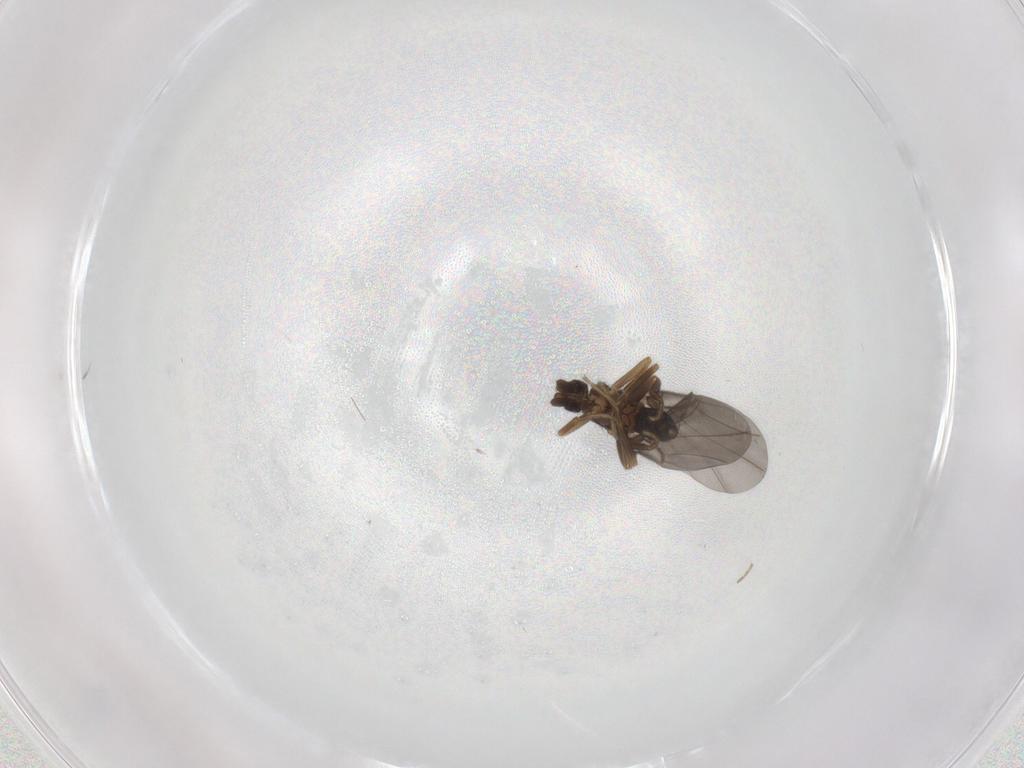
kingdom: Animalia
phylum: Arthropoda
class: Insecta
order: Diptera
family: Phoridae
